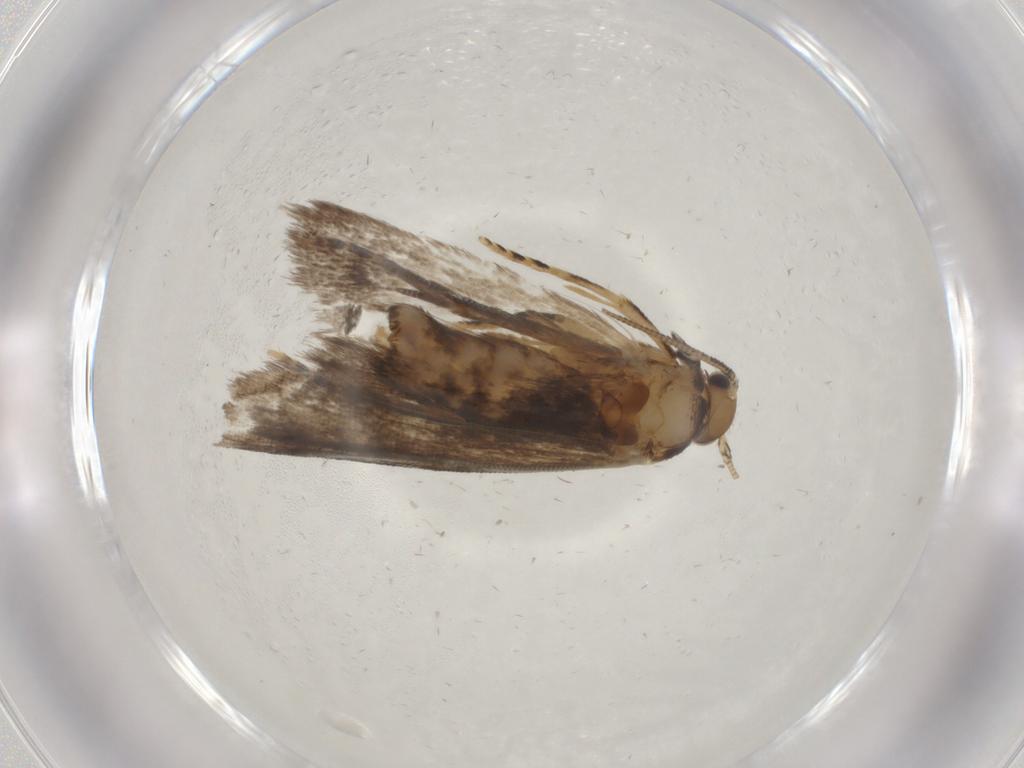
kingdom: Animalia
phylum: Arthropoda
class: Insecta
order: Lepidoptera
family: Dryadaulidae
